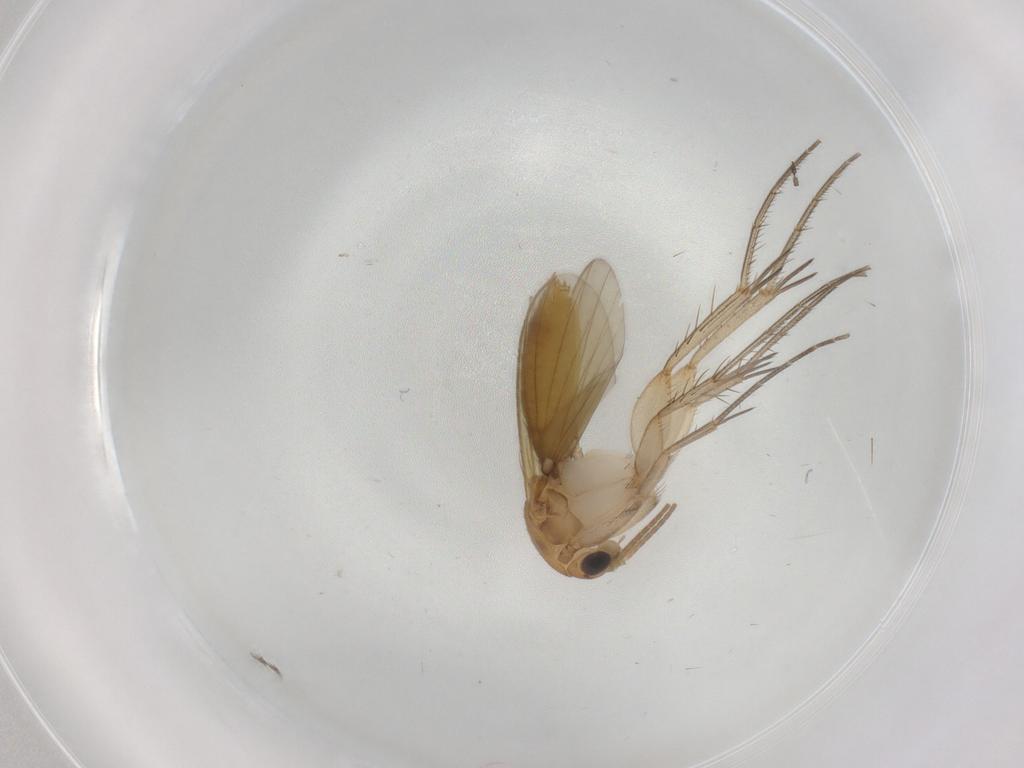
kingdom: Animalia
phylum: Arthropoda
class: Insecta
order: Diptera
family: Mycetophilidae
